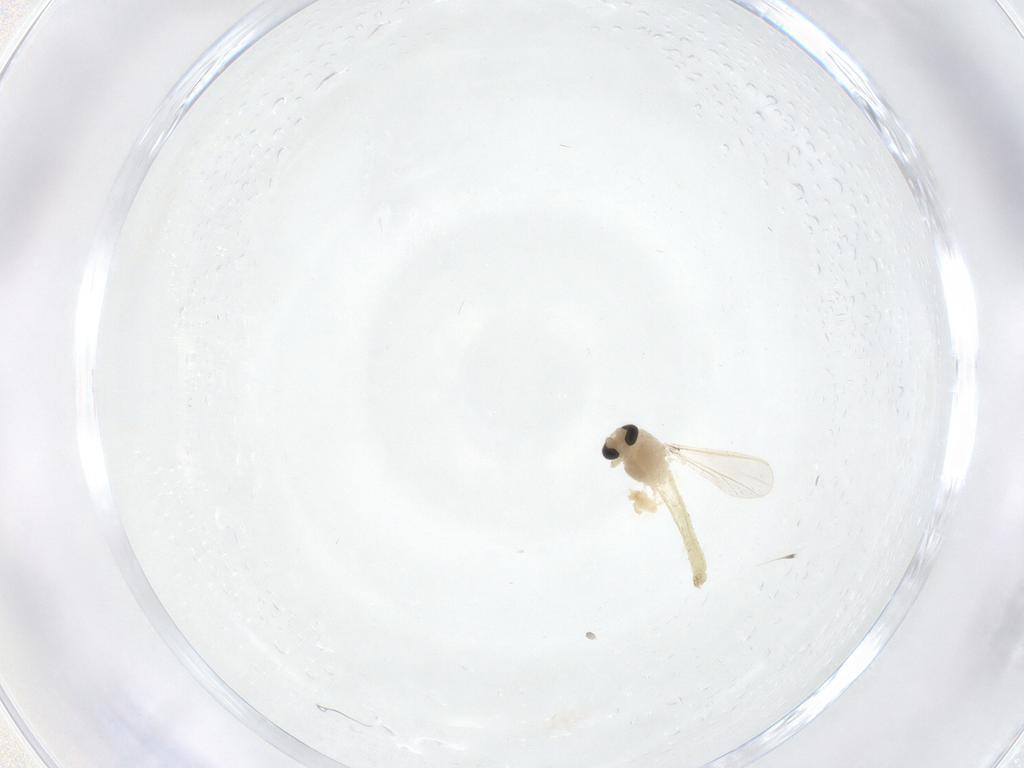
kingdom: Animalia
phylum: Arthropoda
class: Insecta
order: Diptera
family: Chironomidae
